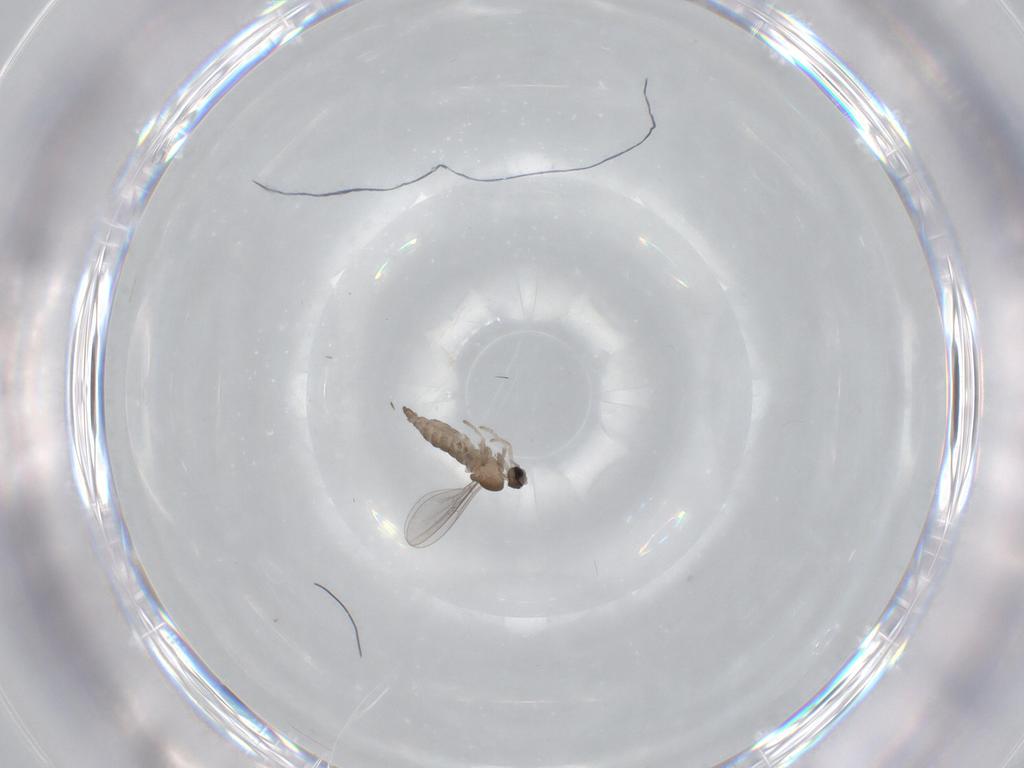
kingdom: Animalia
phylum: Arthropoda
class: Insecta
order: Diptera
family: Cecidomyiidae
